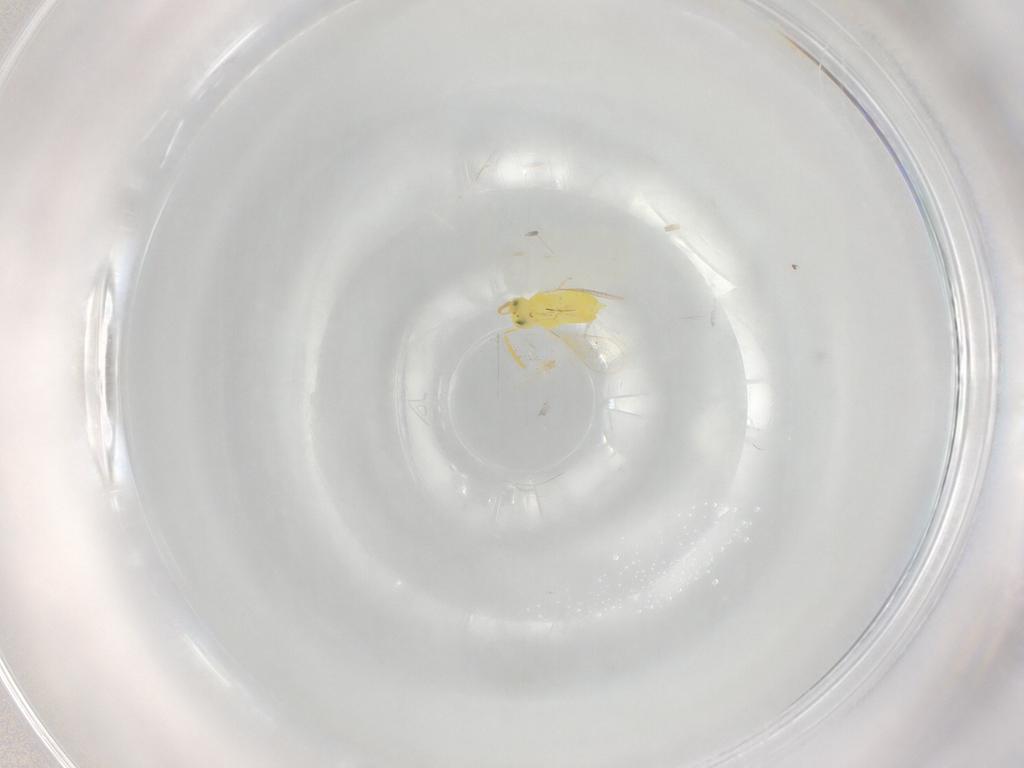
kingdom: Animalia
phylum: Arthropoda
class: Insecta
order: Hymenoptera
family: Aphelinidae
